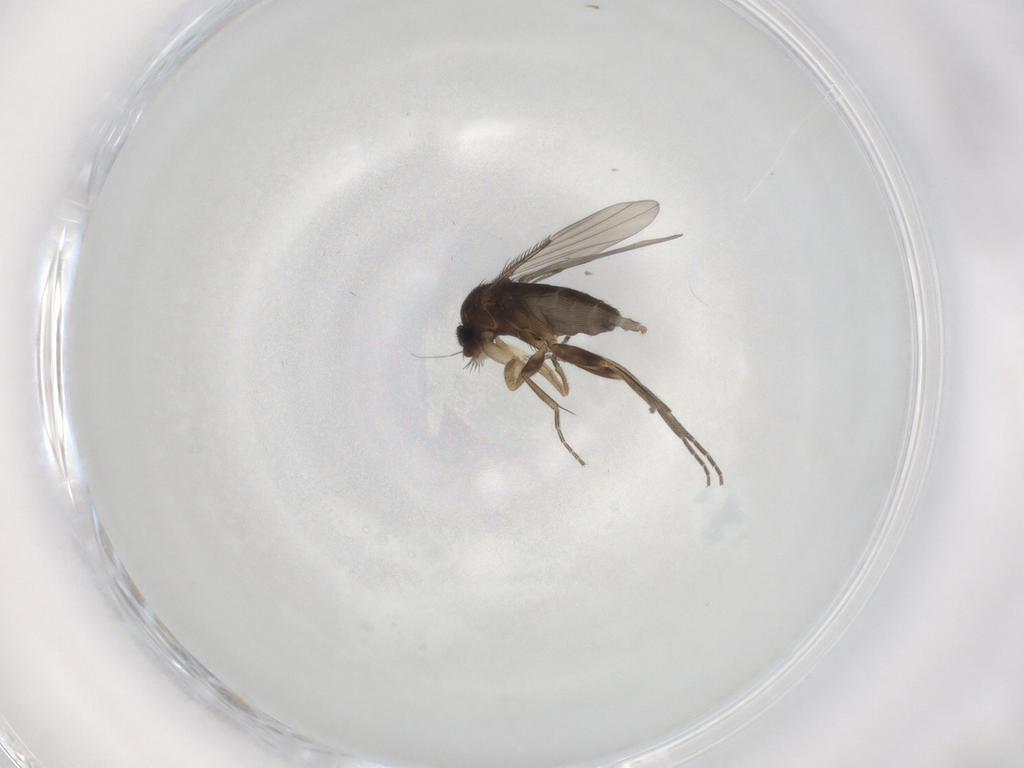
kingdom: Animalia
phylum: Arthropoda
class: Insecta
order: Diptera
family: Phoridae
